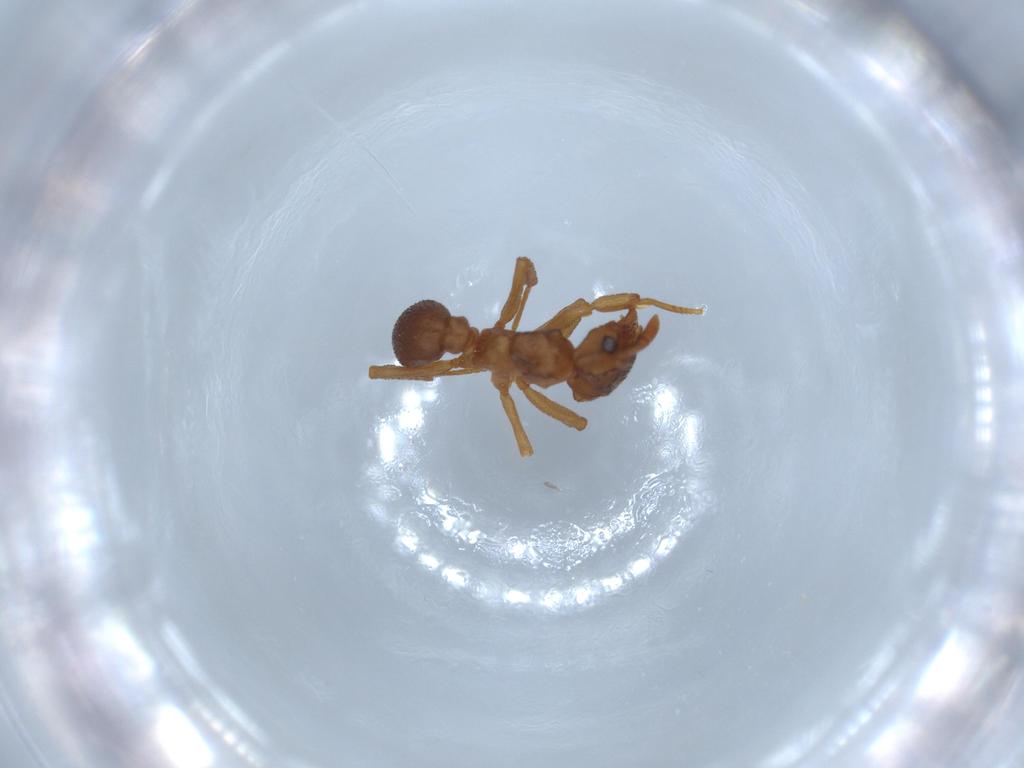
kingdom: Animalia
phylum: Arthropoda
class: Insecta
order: Hymenoptera
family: Formicidae
